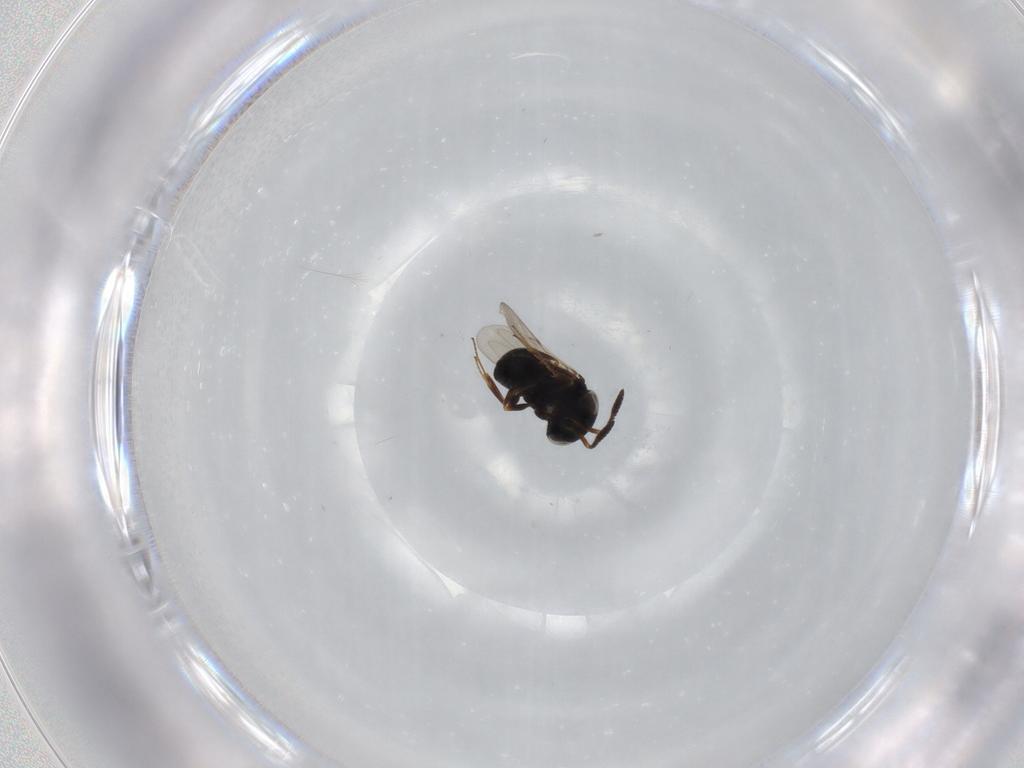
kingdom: Animalia
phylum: Arthropoda
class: Insecta
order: Hymenoptera
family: Scelionidae
